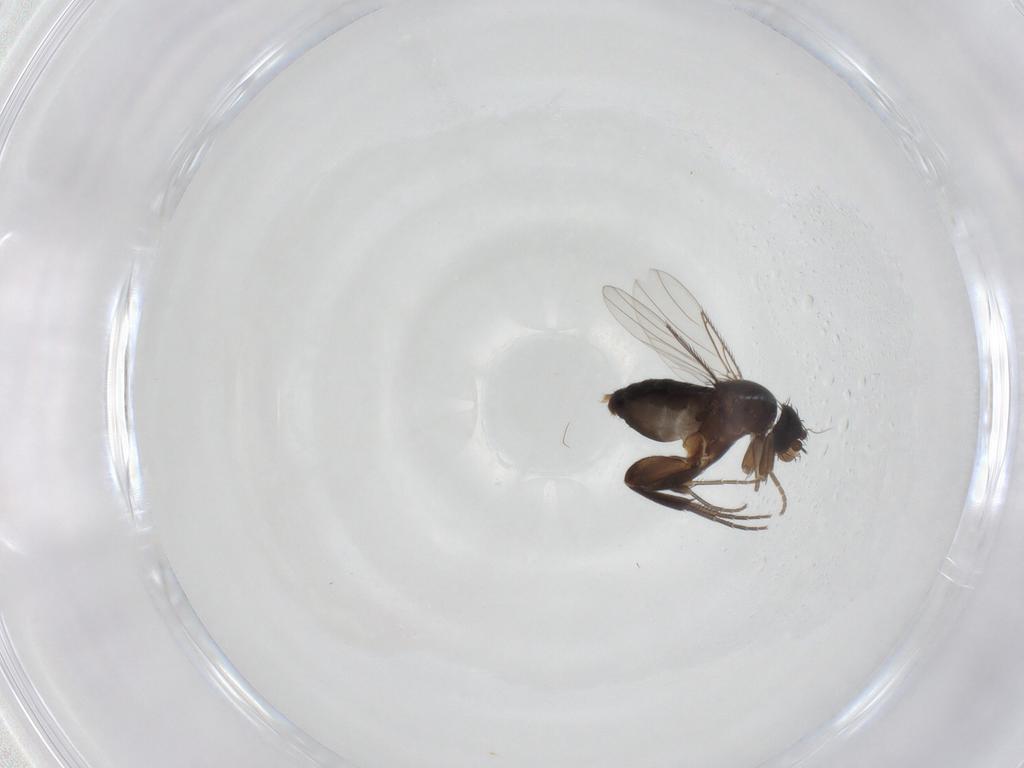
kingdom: Animalia
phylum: Arthropoda
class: Insecta
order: Diptera
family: Phoridae
